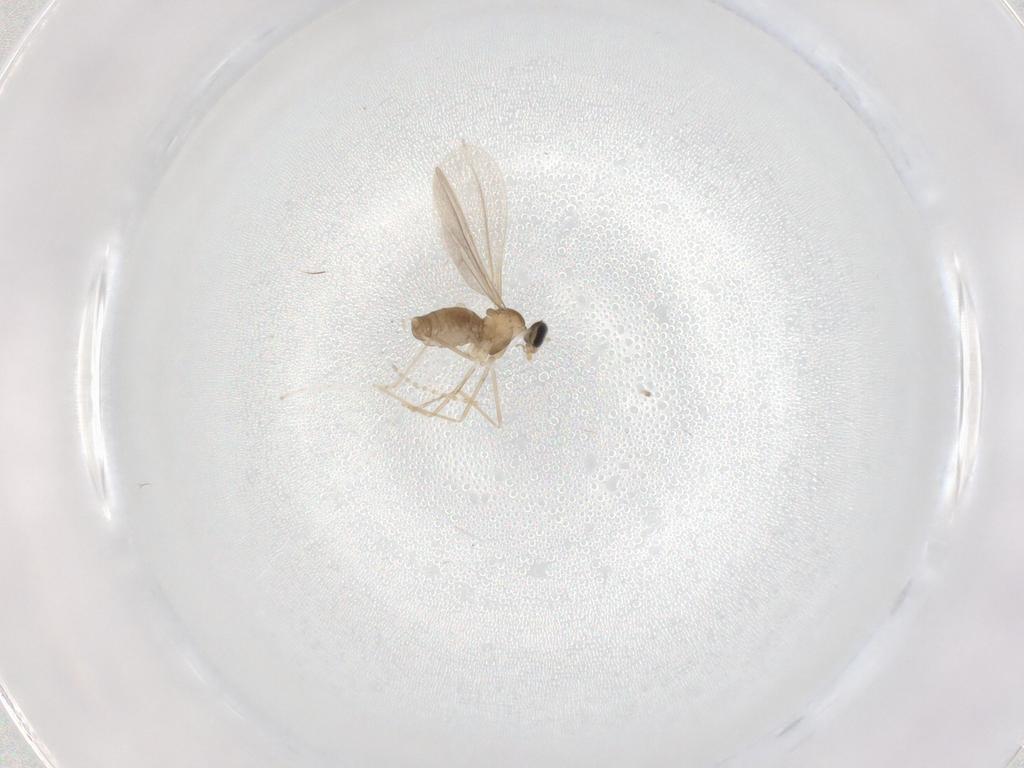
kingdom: Animalia
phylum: Arthropoda
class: Insecta
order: Diptera
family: Cecidomyiidae
